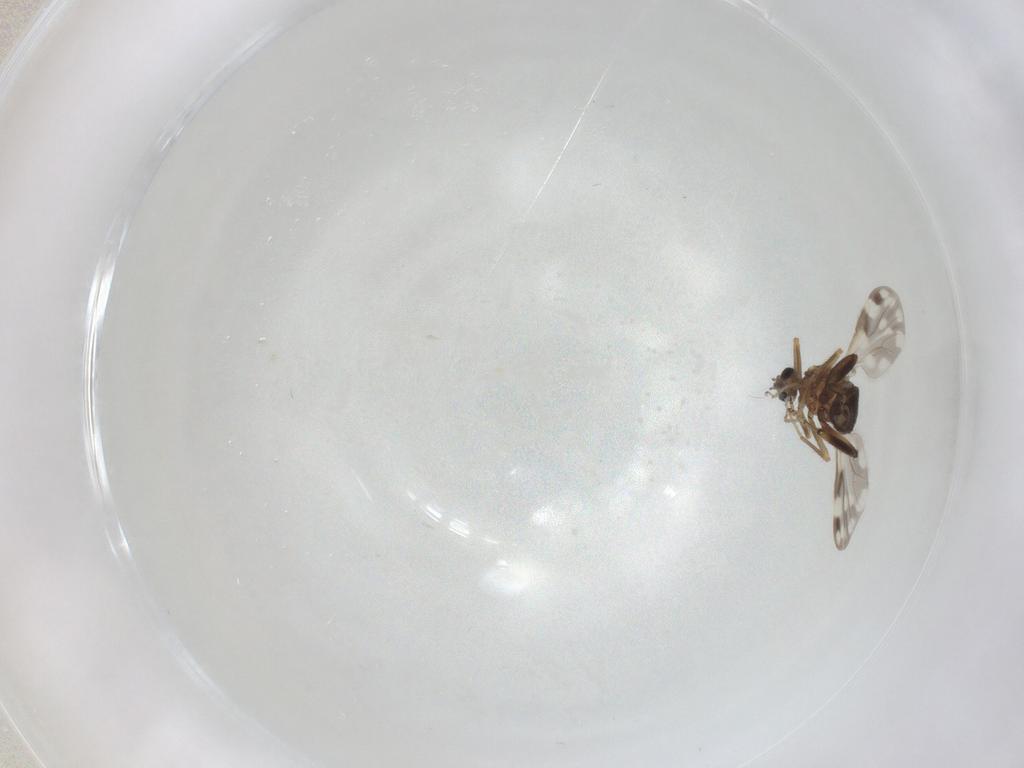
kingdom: Animalia
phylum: Arthropoda
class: Insecta
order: Diptera
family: Ceratopogonidae
